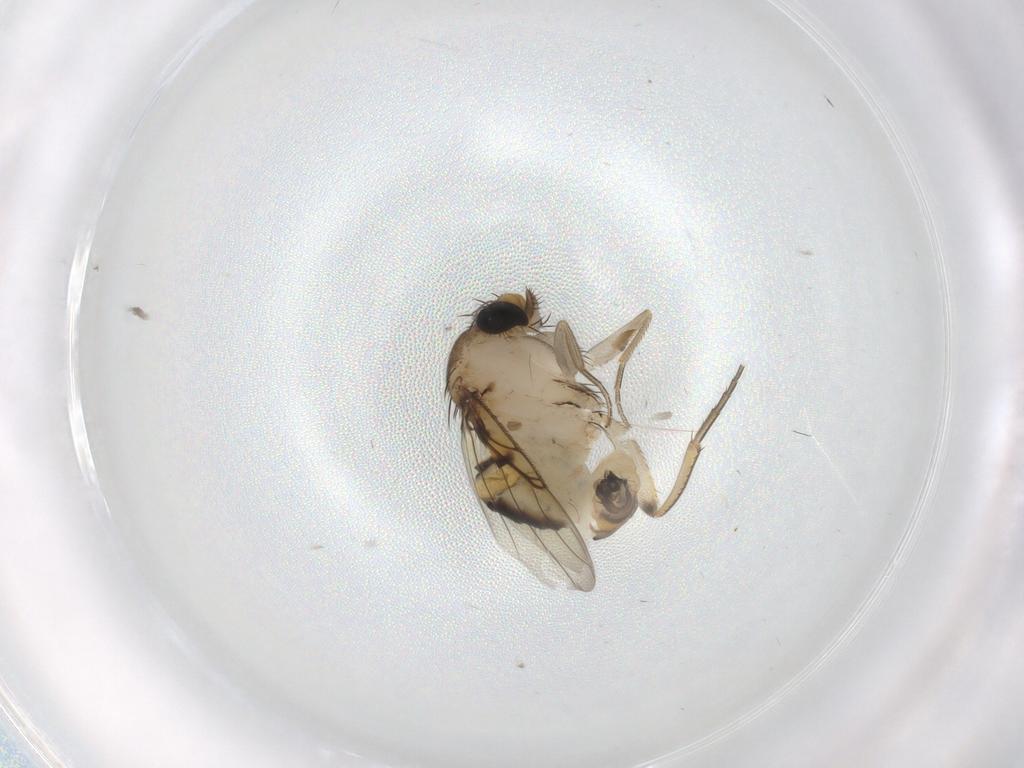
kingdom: Animalia
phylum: Arthropoda
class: Insecta
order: Diptera
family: Phoridae
